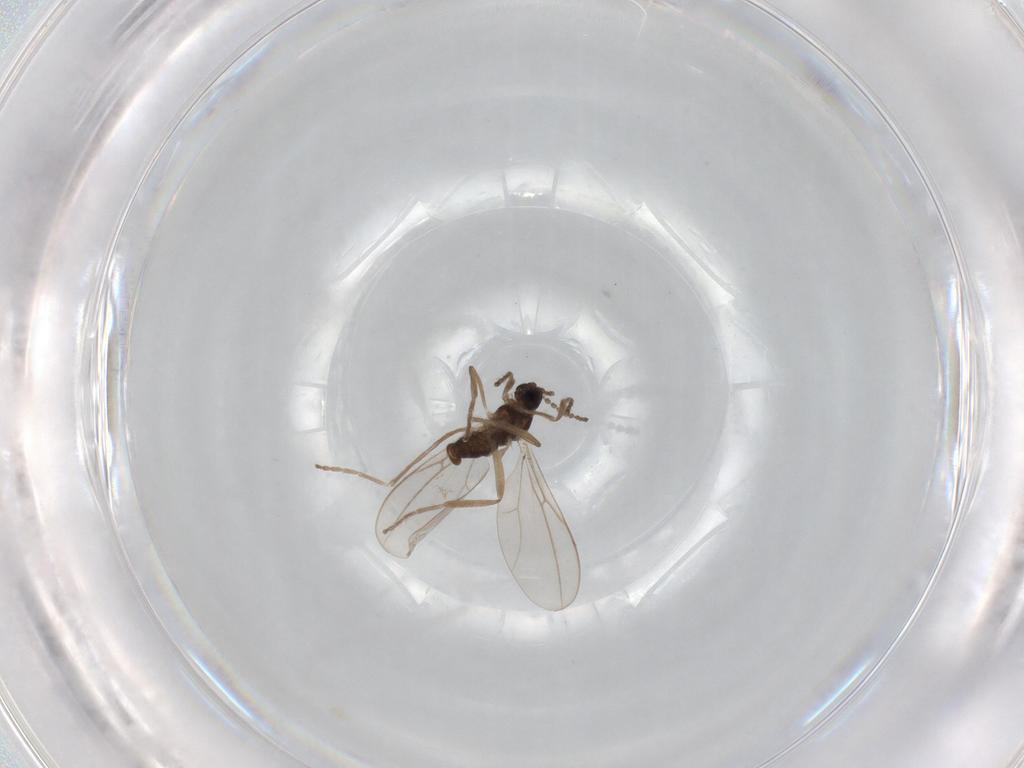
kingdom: Animalia
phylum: Arthropoda
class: Insecta
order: Diptera
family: Cecidomyiidae
